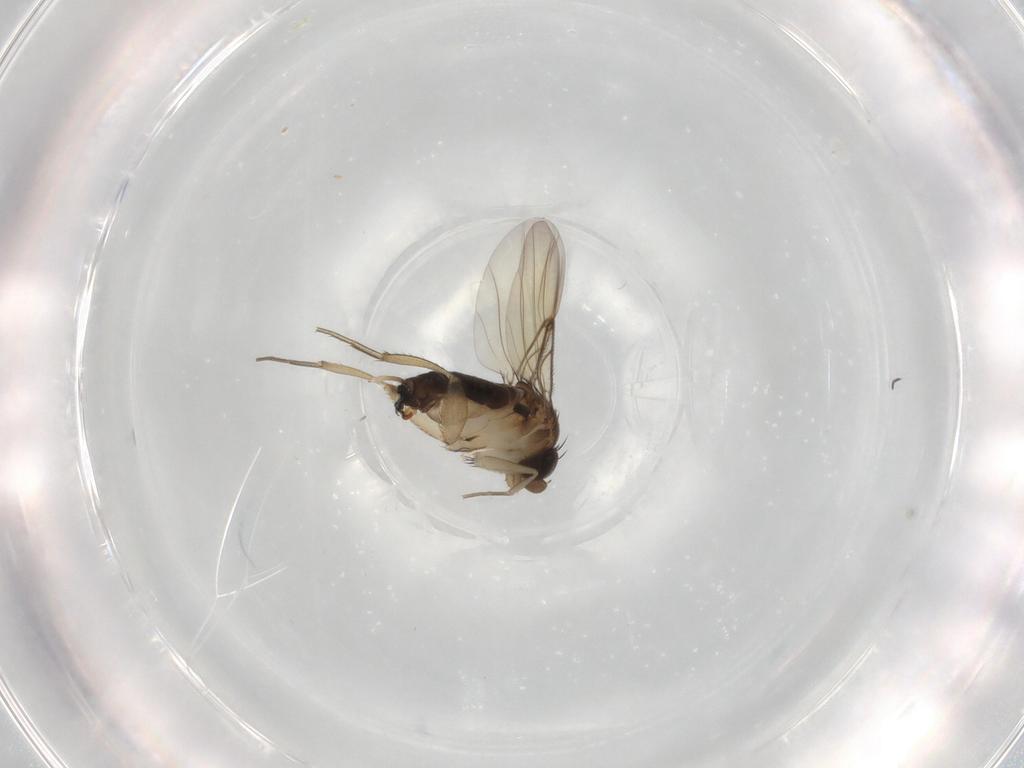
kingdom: Animalia
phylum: Arthropoda
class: Insecta
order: Diptera
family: Phoridae
